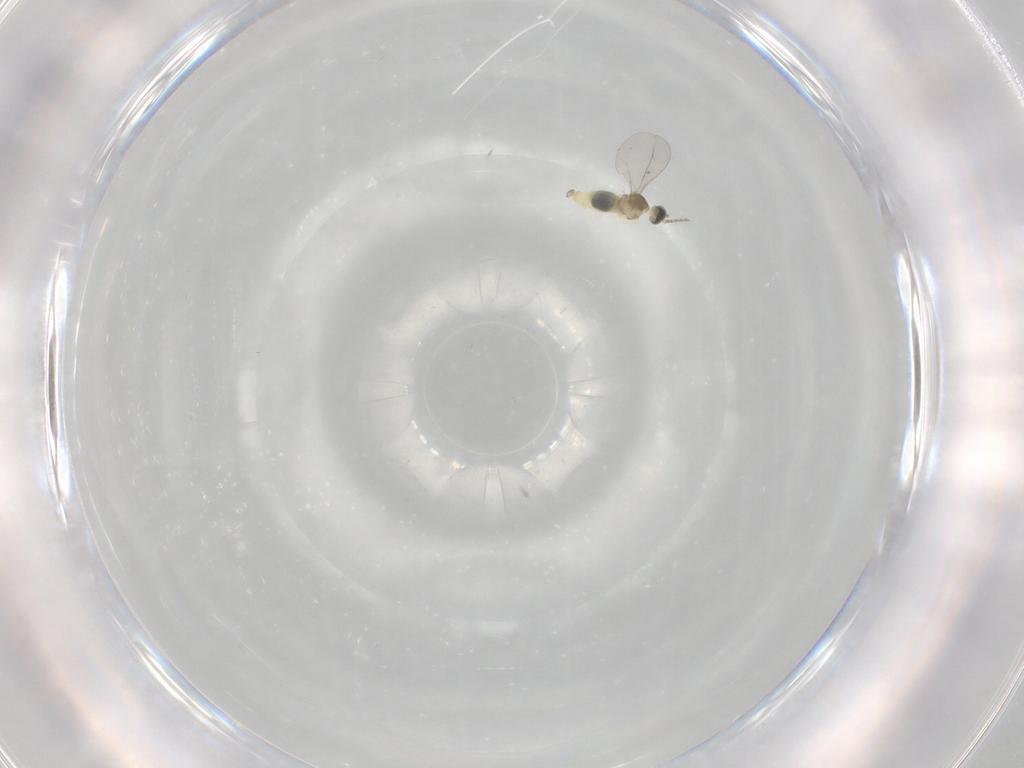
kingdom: Animalia
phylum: Arthropoda
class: Insecta
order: Diptera
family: Cecidomyiidae
